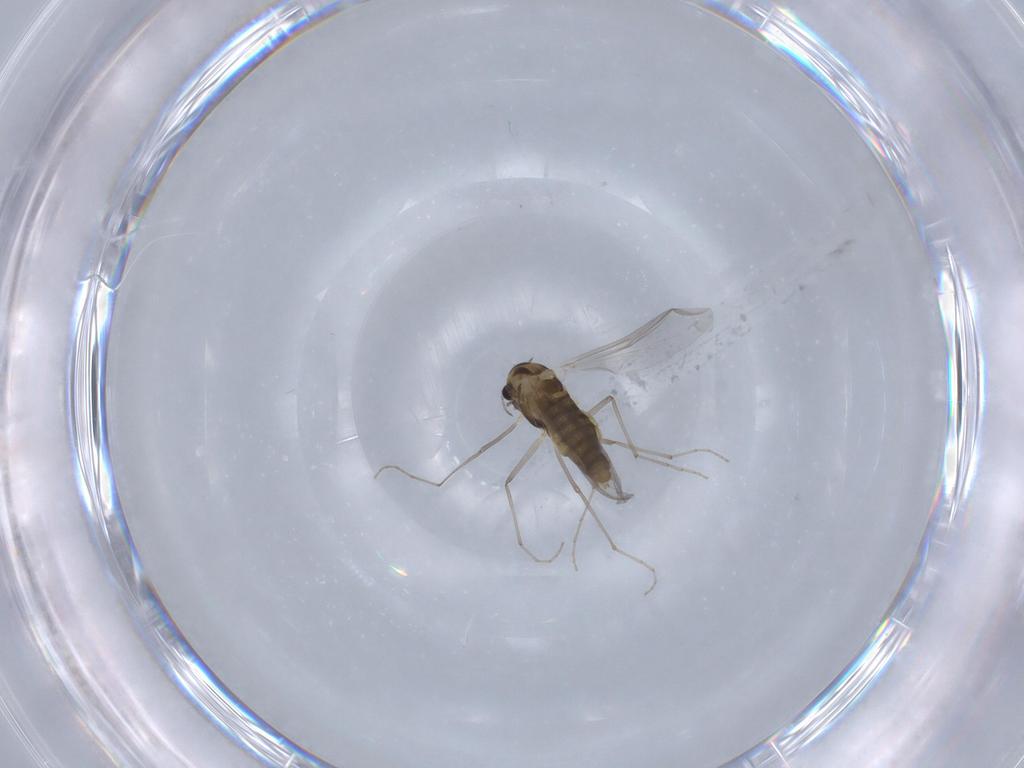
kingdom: Animalia
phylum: Arthropoda
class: Insecta
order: Diptera
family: Chironomidae
